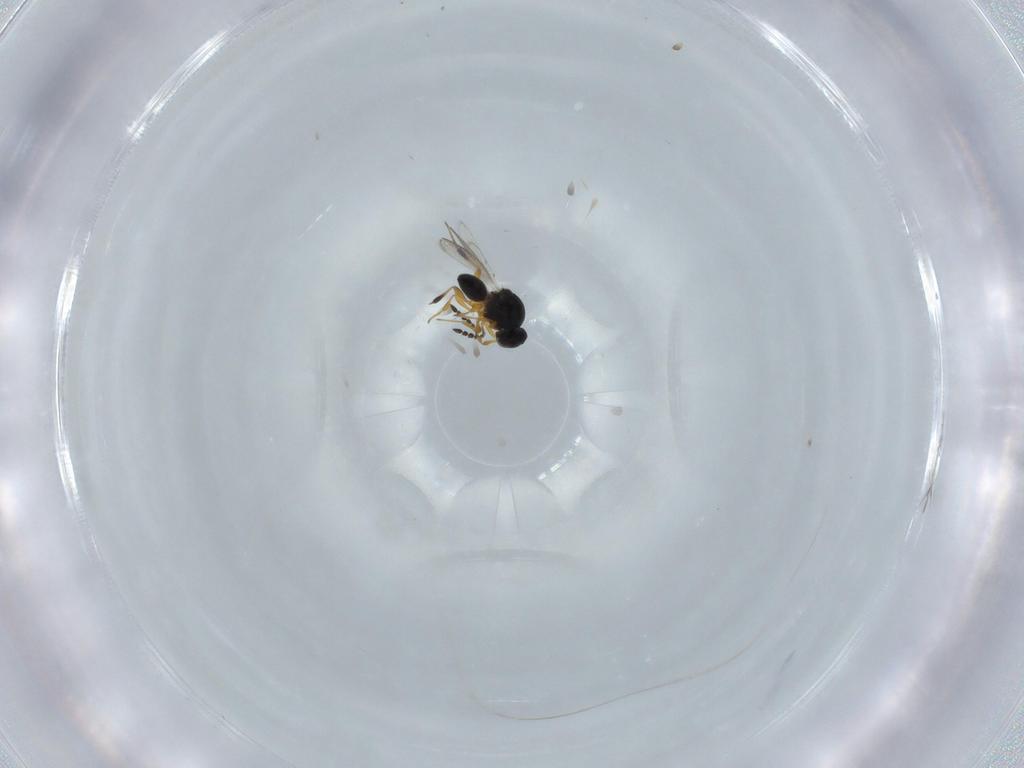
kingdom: Animalia
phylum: Arthropoda
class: Insecta
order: Hymenoptera
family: Platygastridae
